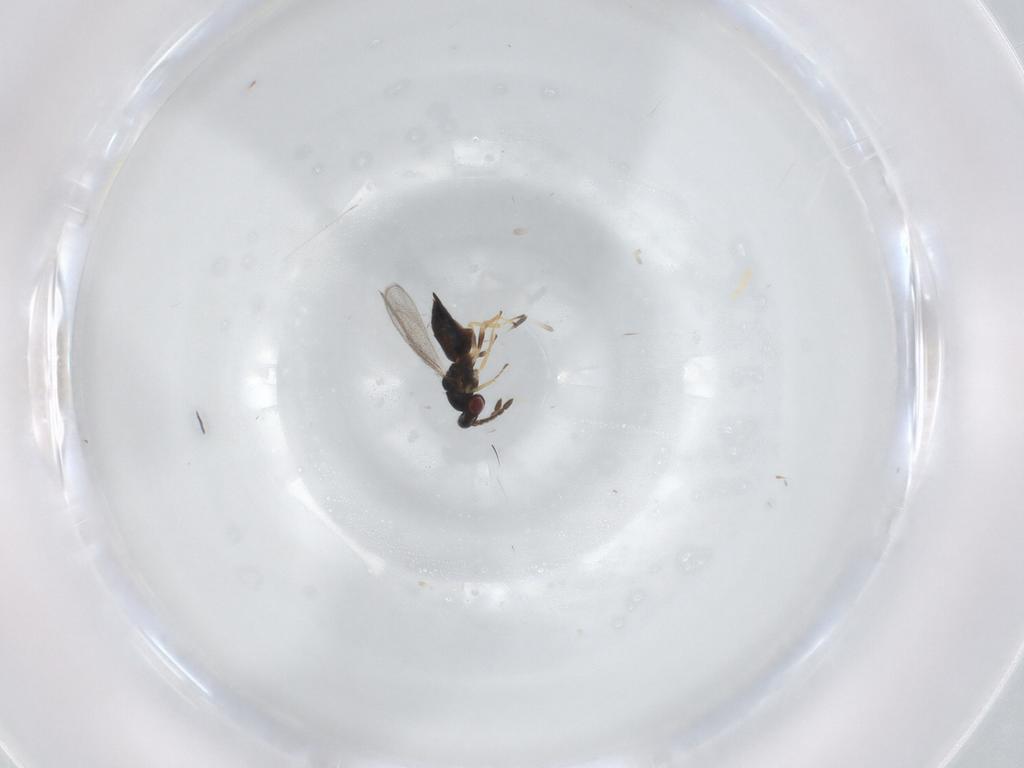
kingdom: Animalia
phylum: Arthropoda
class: Insecta
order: Hymenoptera
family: Eulophidae
